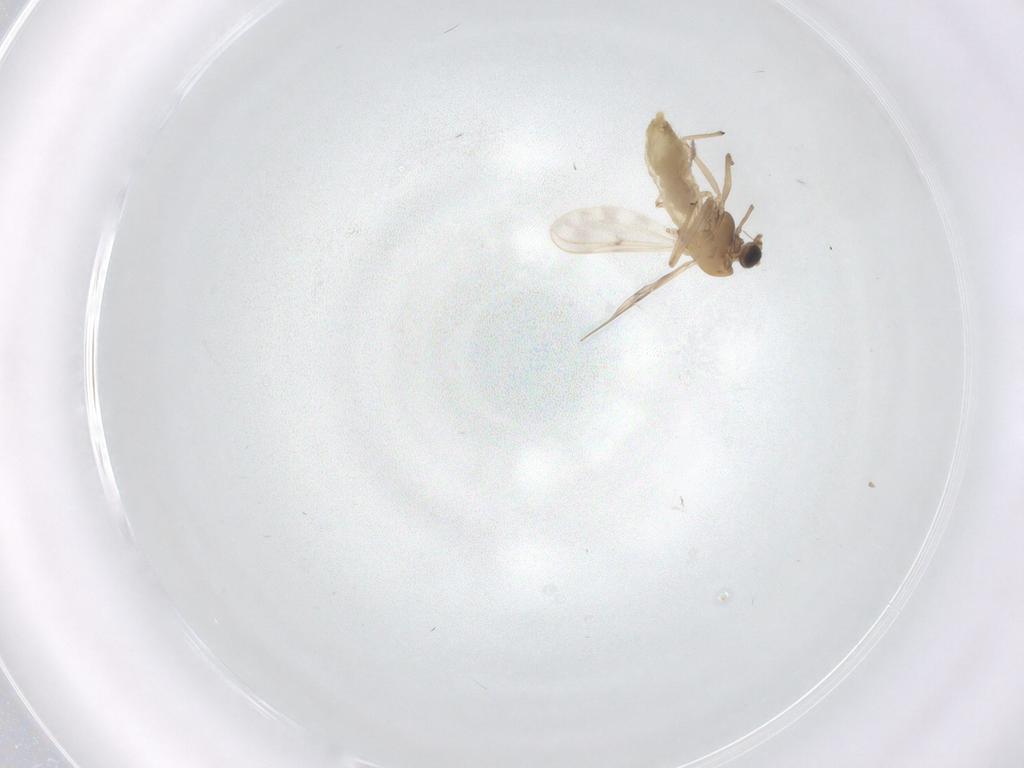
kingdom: Animalia
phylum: Arthropoda
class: Insecta
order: Diptera
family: Chironomidae
